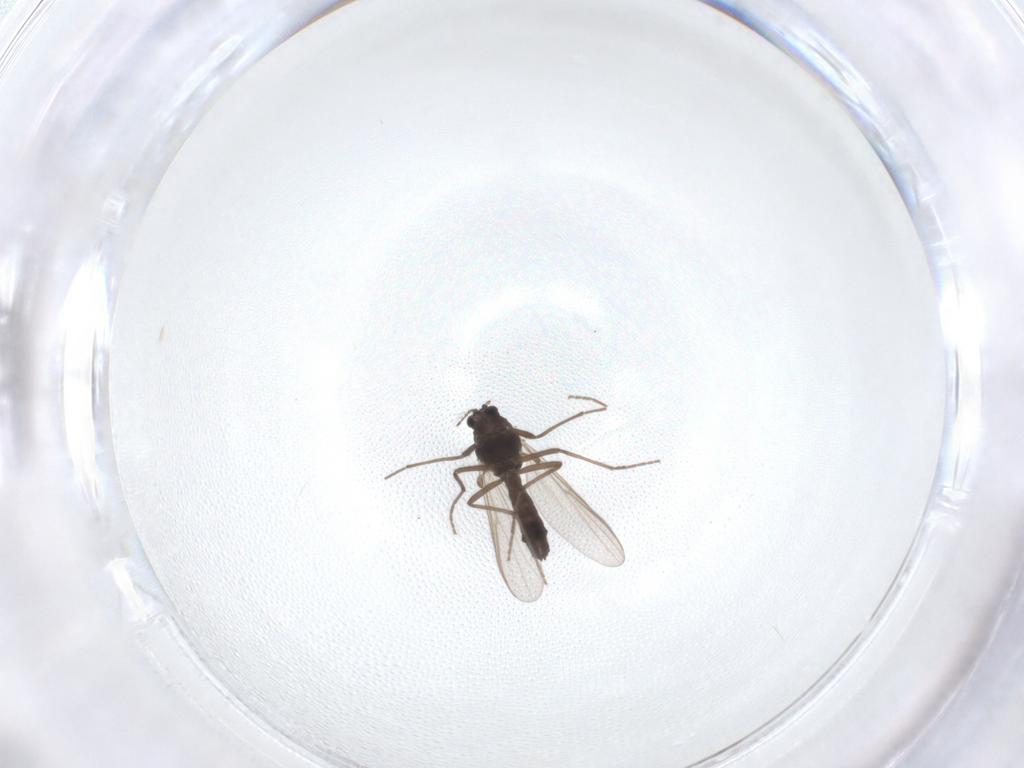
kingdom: Animalia
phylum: Arthropoda
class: Insecta
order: Diptera
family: Chironomidae
